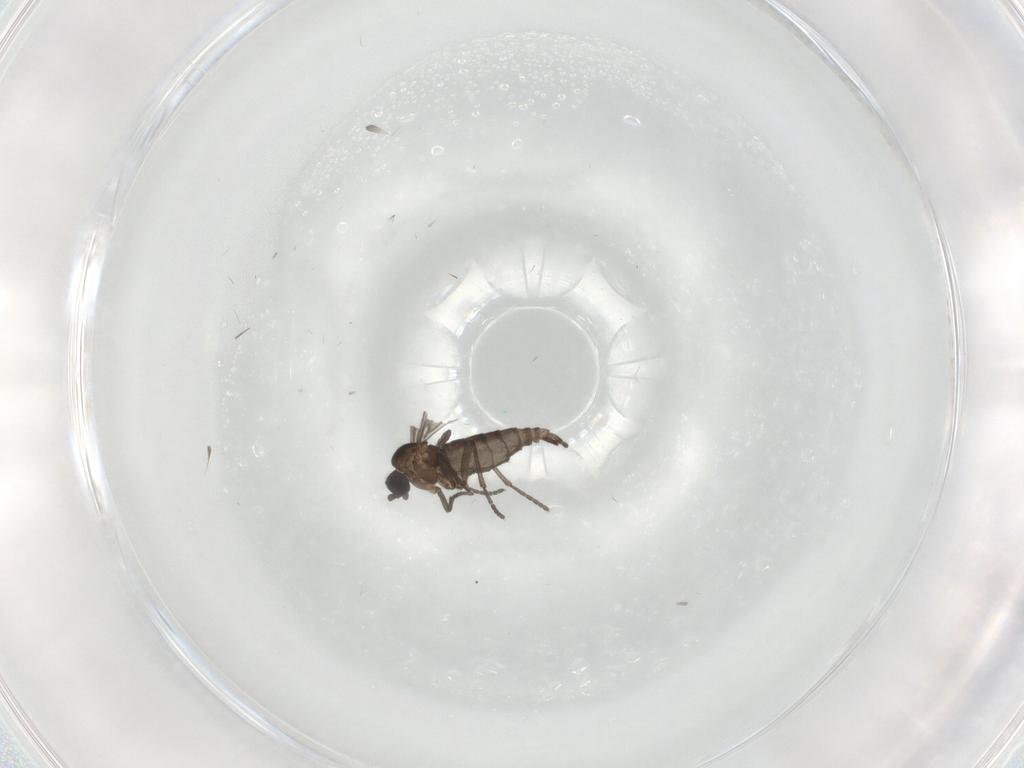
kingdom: Animalia
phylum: Arthropoda
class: Insecta
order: Diptera
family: Sciaridae
